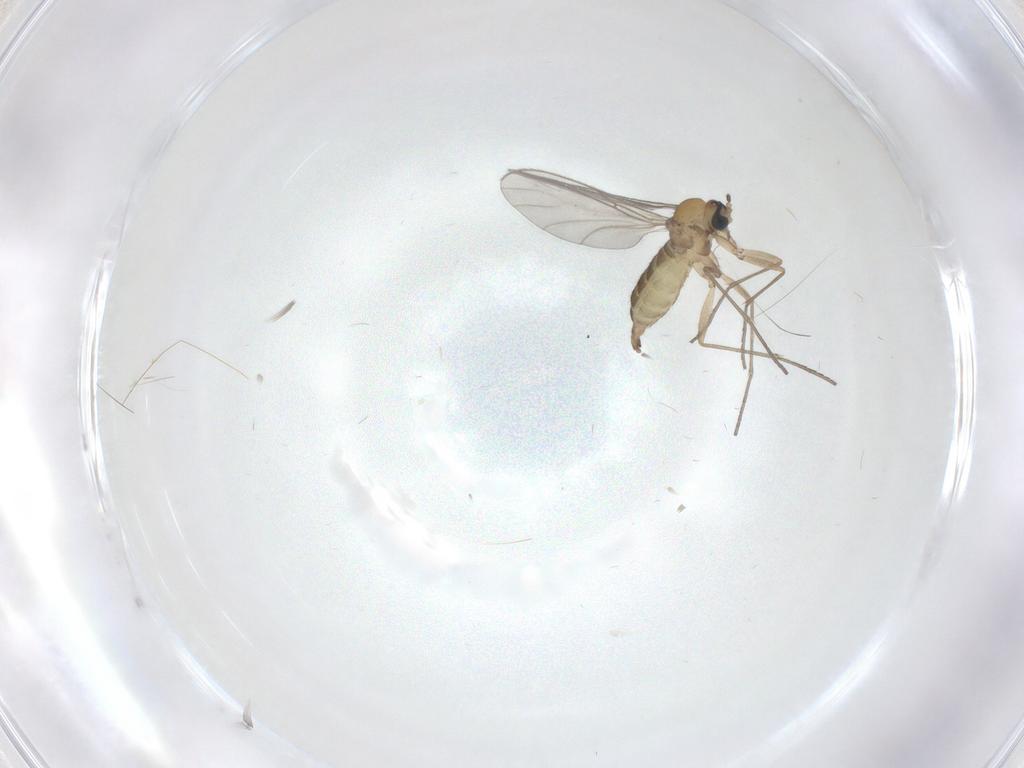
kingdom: Animalia
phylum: Arthropoda
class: Insecta
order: Diptera
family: Sciaridae
